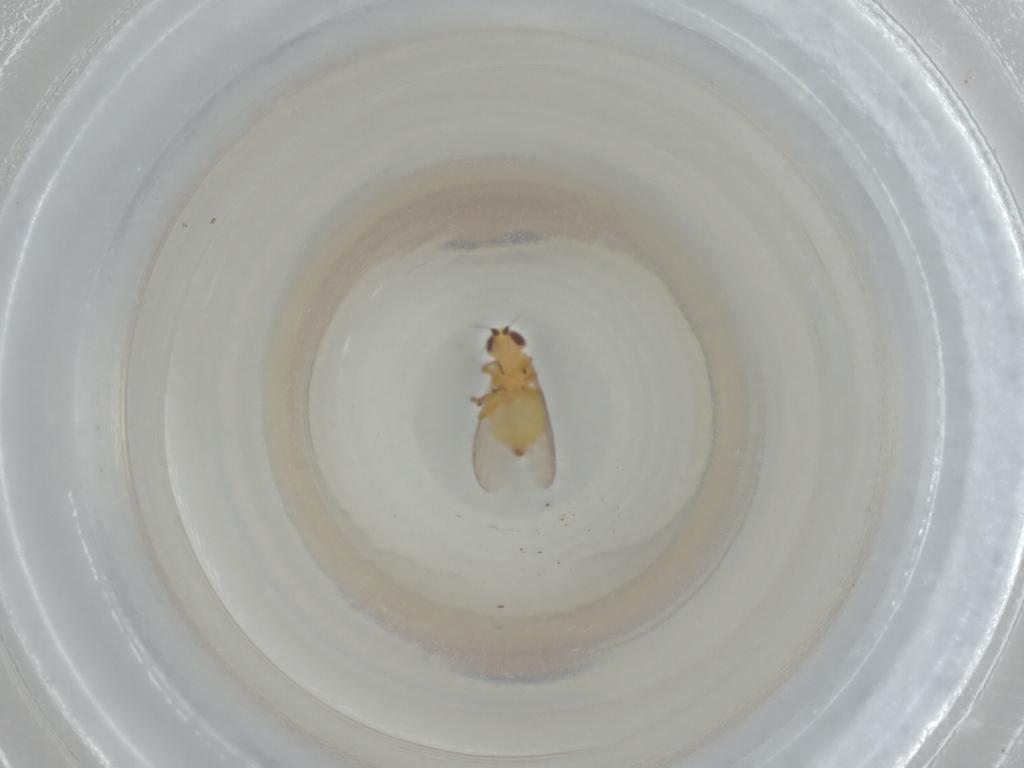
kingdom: Animalia
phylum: Arthropoda
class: Insecta
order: Diptera
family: Chloropidae
